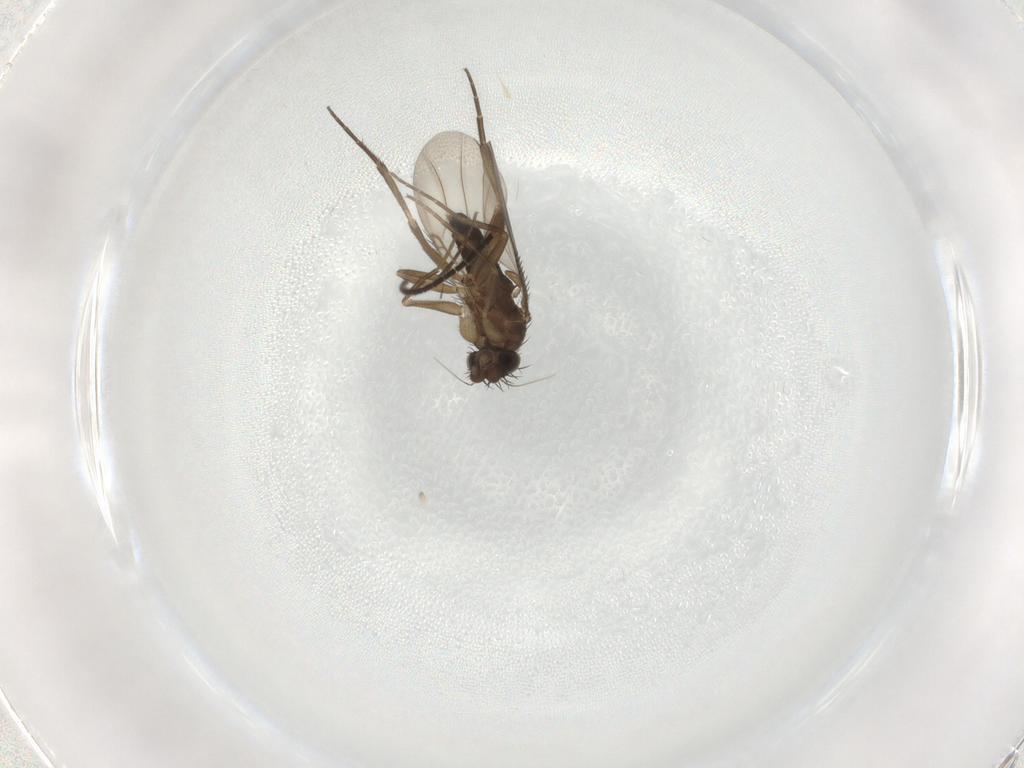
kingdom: Animalia
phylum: Arthropoda
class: Insecta
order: Diptera
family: Phoridae
